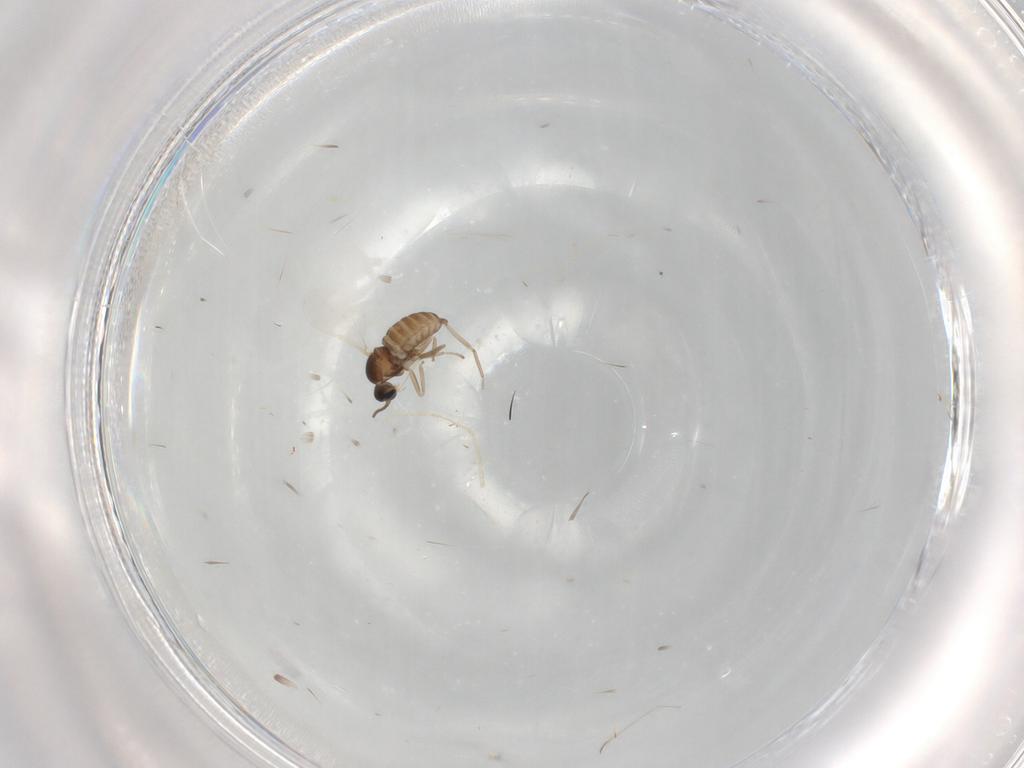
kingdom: Animalia
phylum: Arthropoda
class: Insecta
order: Diptera
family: Cecidomyiidae
